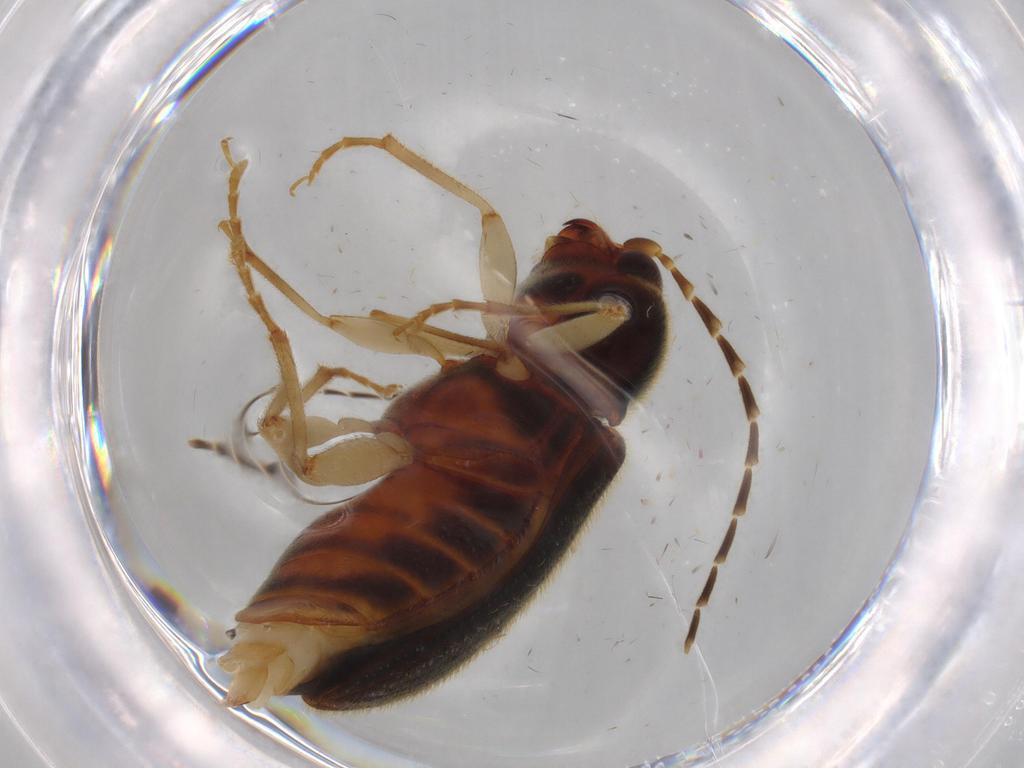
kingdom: Animalia
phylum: Arthropoda
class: Insecta
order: Coleoptera
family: Elateridae
